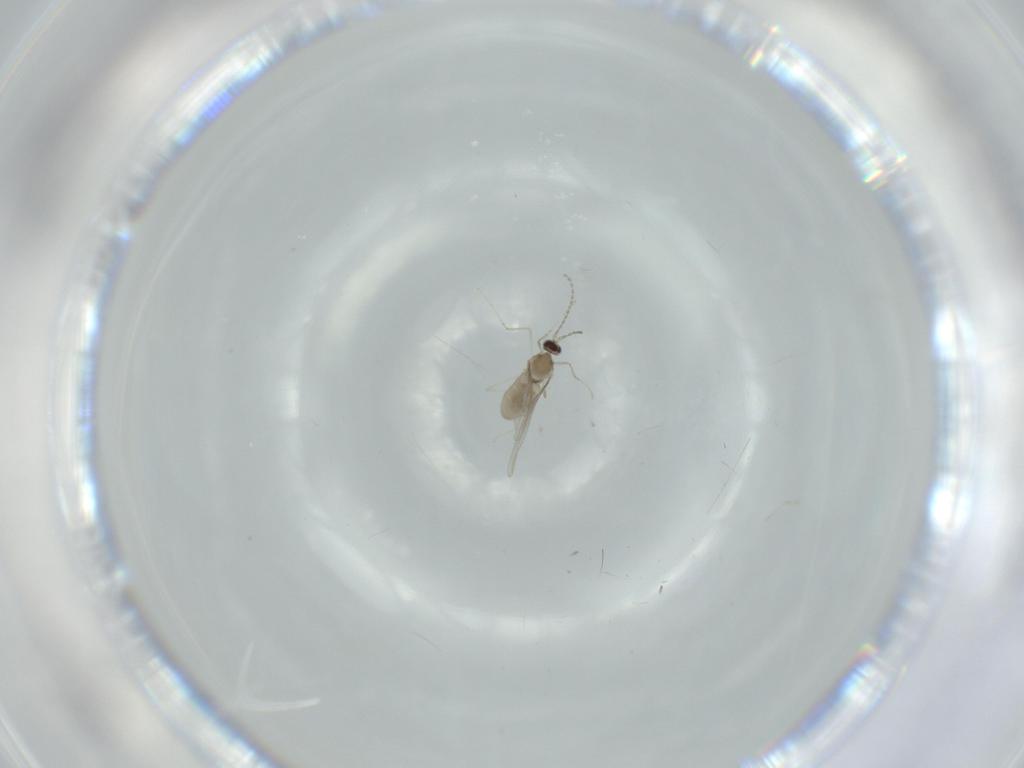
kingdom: Animalia
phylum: Arthropoda
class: Insecta
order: Diptera
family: Cecidomyiidae
